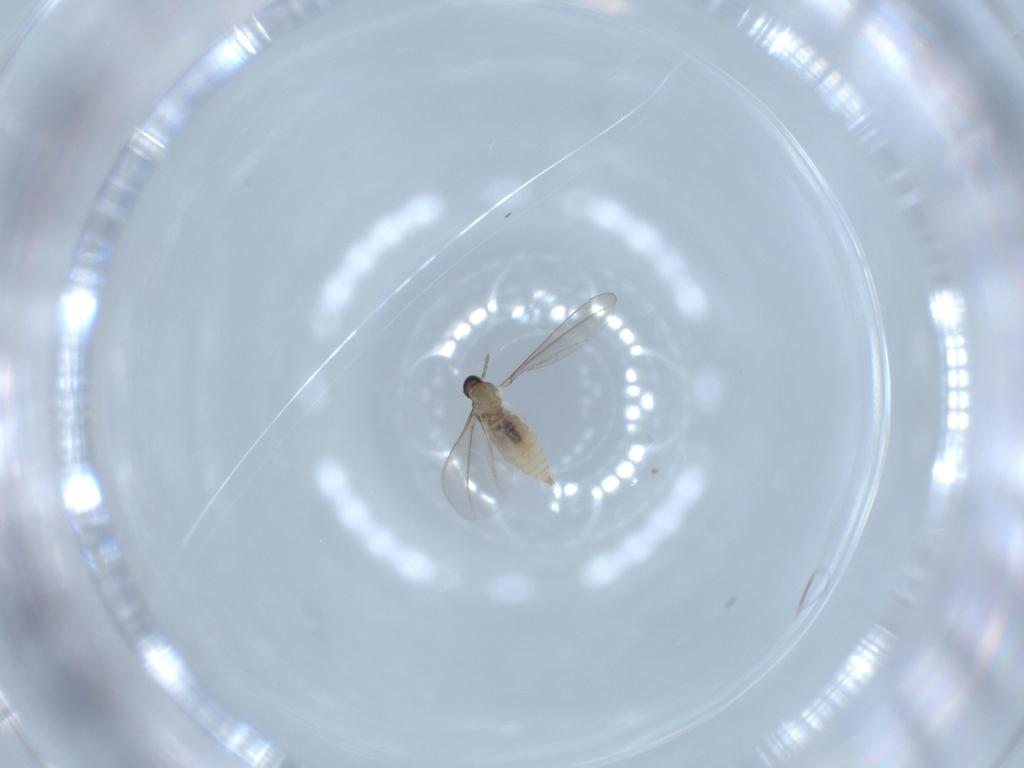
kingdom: Animalia
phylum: Arthropoda
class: Insecta
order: Diptera
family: Cecidomyiidae
